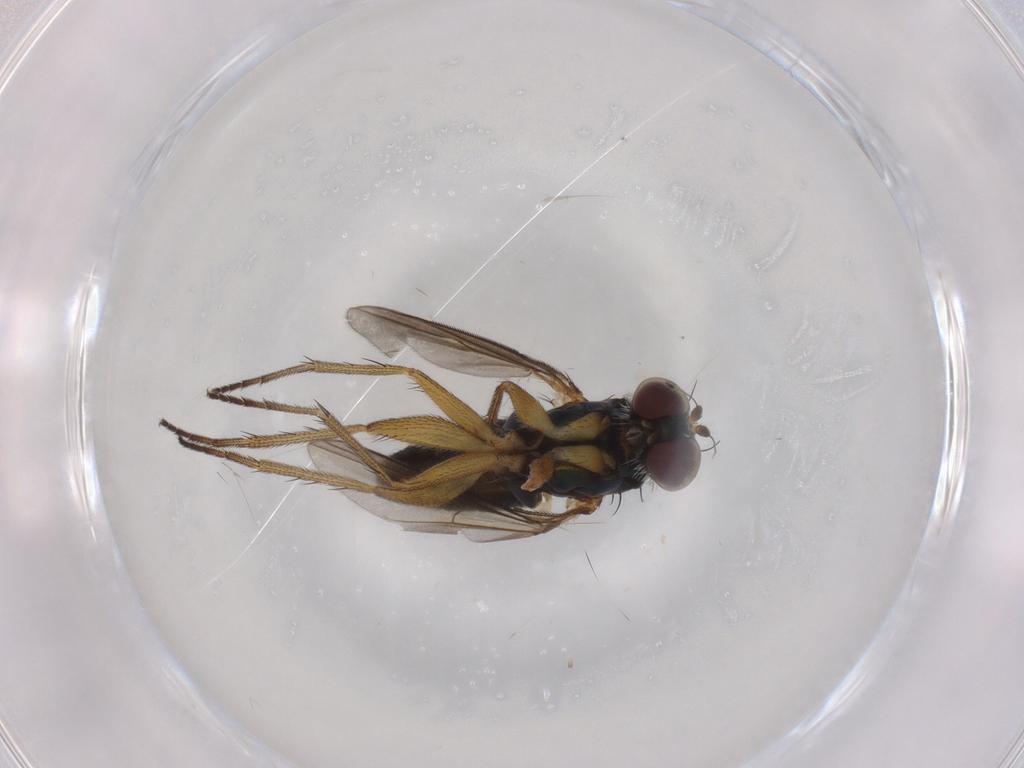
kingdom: Animalia
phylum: Arthropoda
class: Insecta
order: Diptera
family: Dolichopodidae
